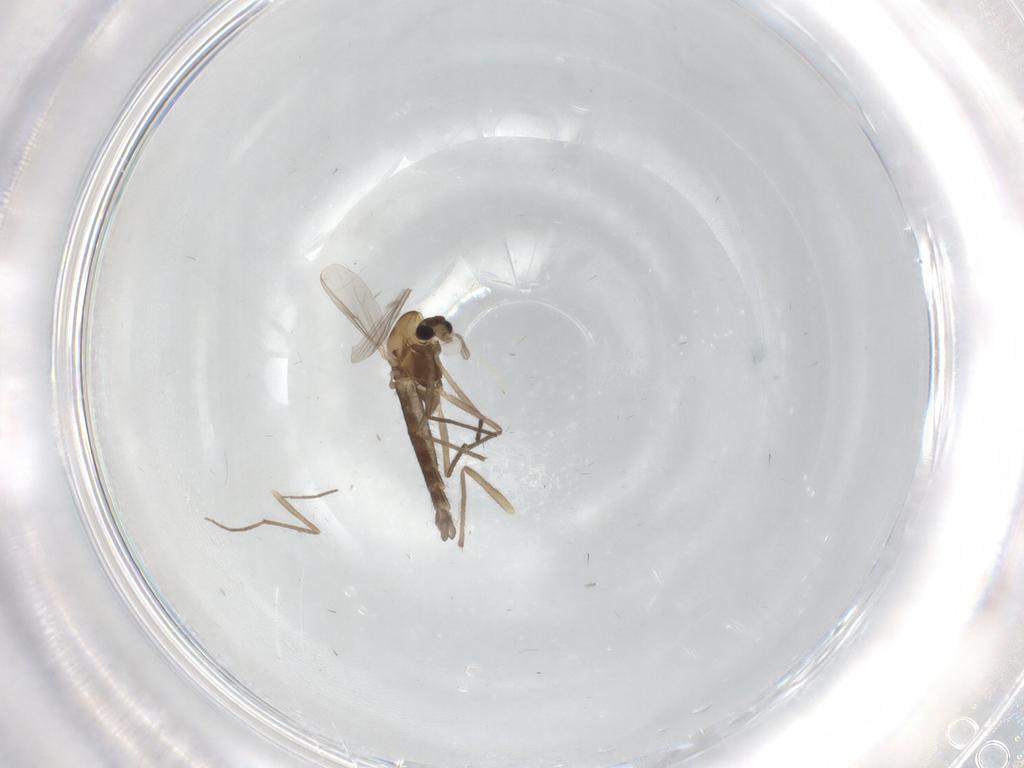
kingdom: Animalia
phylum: Arthropoda
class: Insecta
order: Diptera
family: Chironomidae
